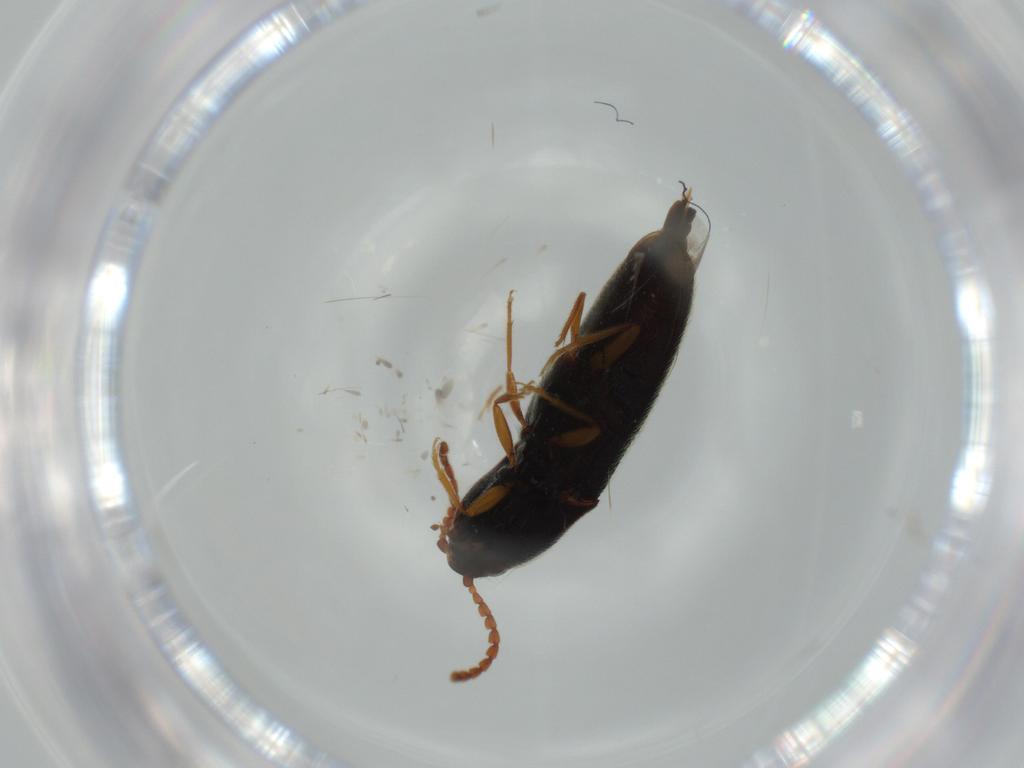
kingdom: Animalia
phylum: Arthropoda
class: Insecta
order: Coleoptera
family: Elateridae
